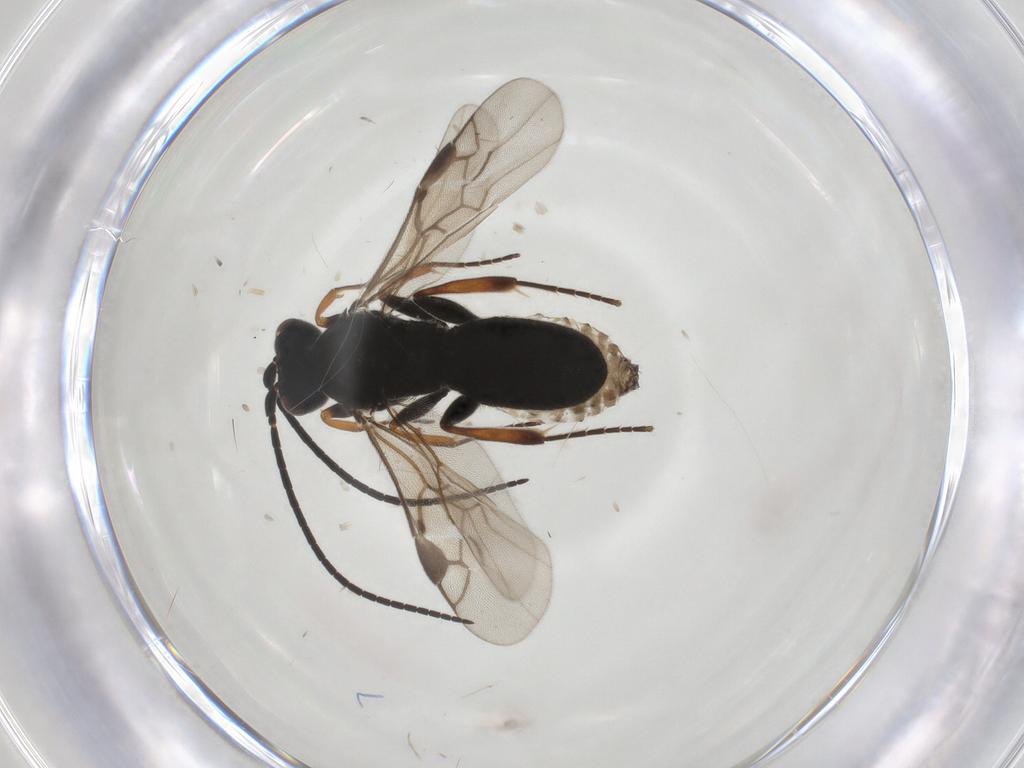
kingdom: Animalia
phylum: Arthropoda
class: Insecta
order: Hymenoptera
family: Braconidae
